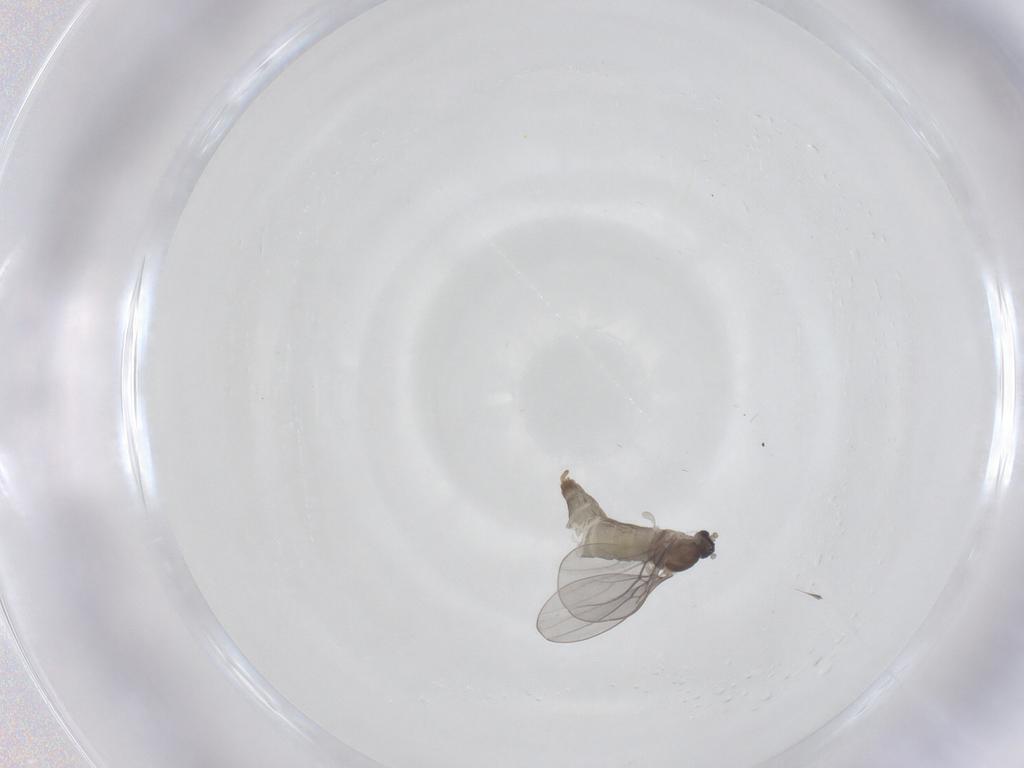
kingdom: Animalia
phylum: Arthropoda
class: Insecta
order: Diptera
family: Cecidomyiidae
